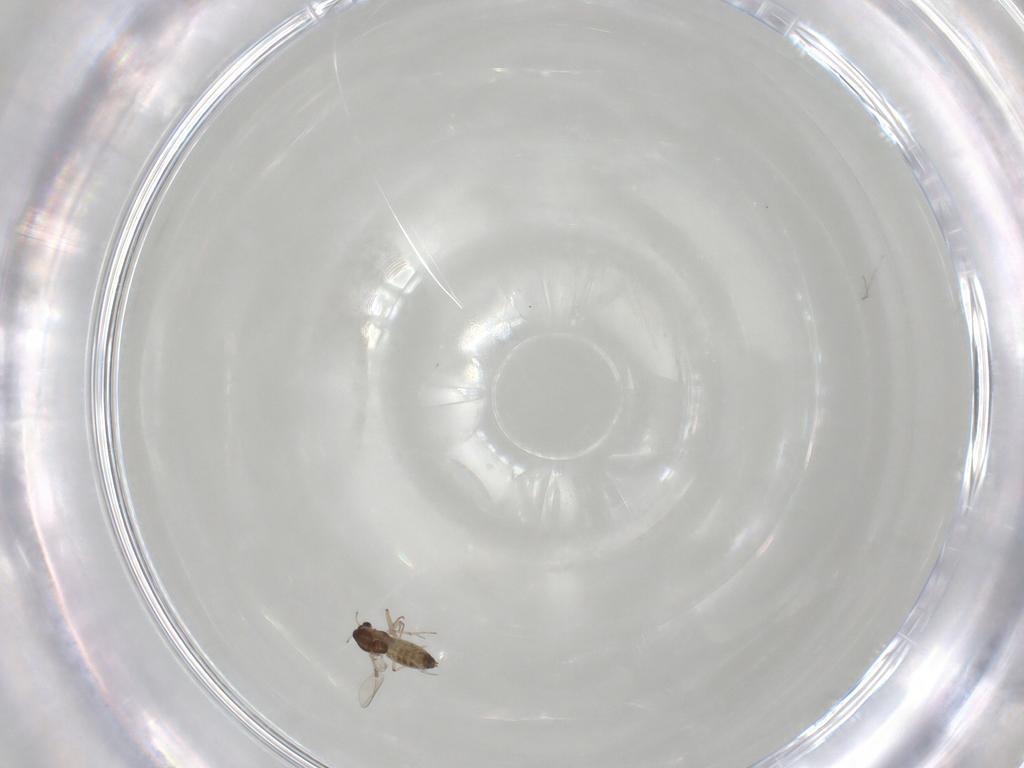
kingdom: Animalia
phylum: Arthropoda
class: Insecta
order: Diptera
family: Chironomidae
